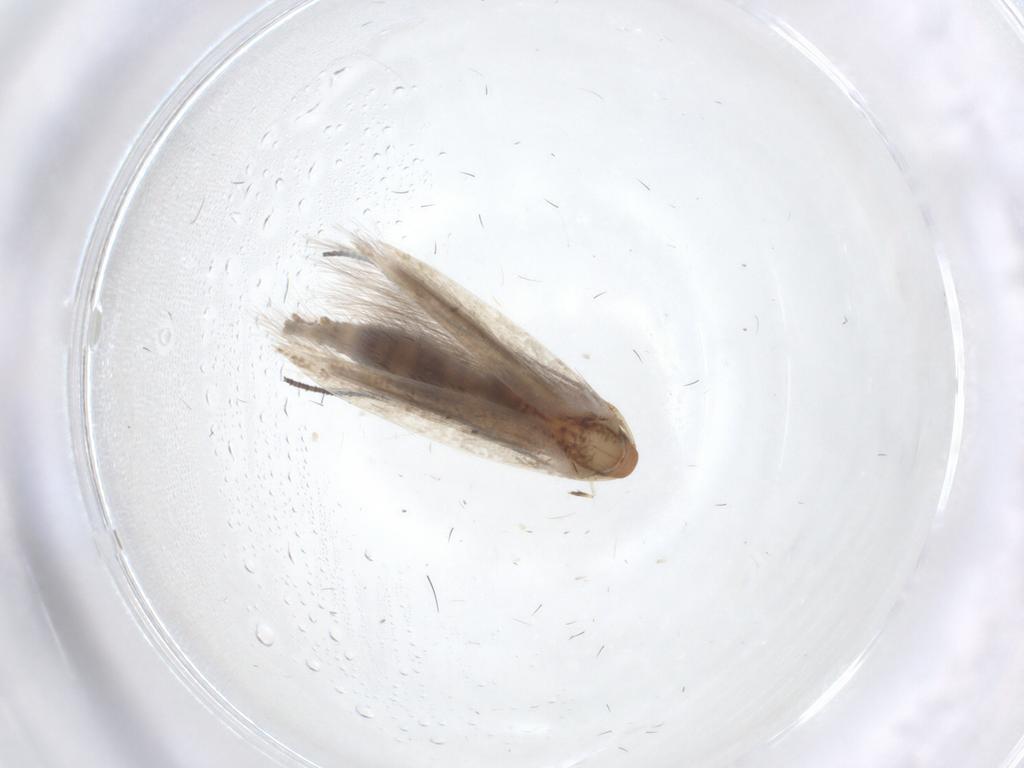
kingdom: Animalia
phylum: Arthropoda
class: Insecta
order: Lepidoptera
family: Gracillariidae
